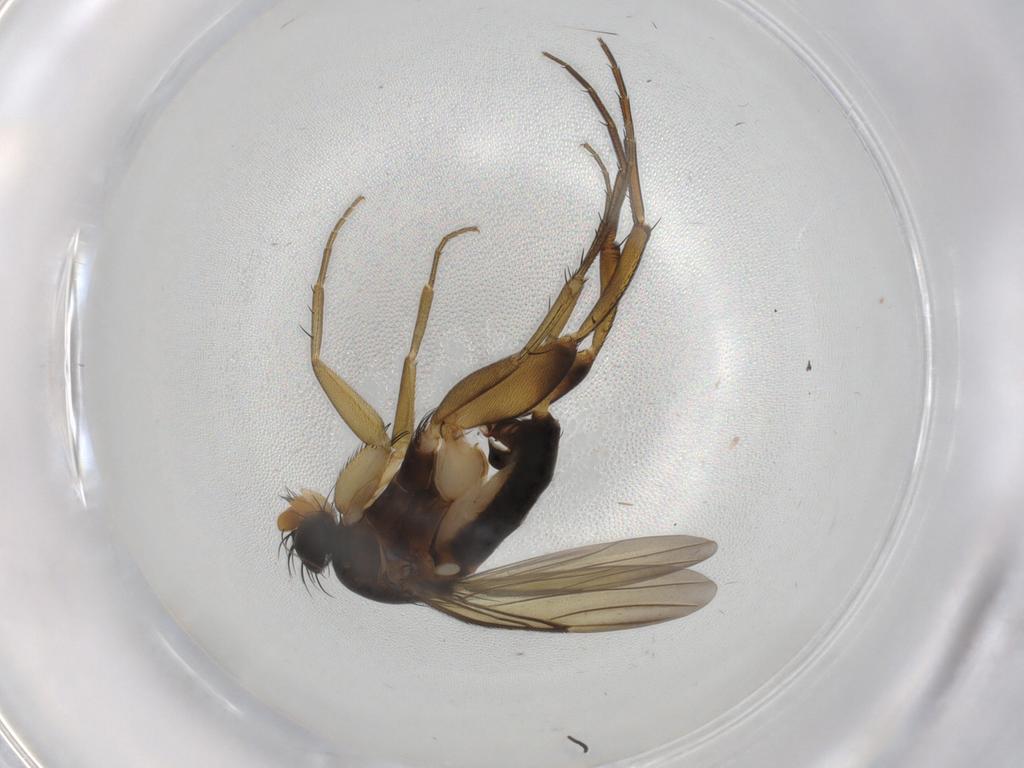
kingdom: Animalia
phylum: Arthropoda
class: Insecta
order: Diptera
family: Phoridae
